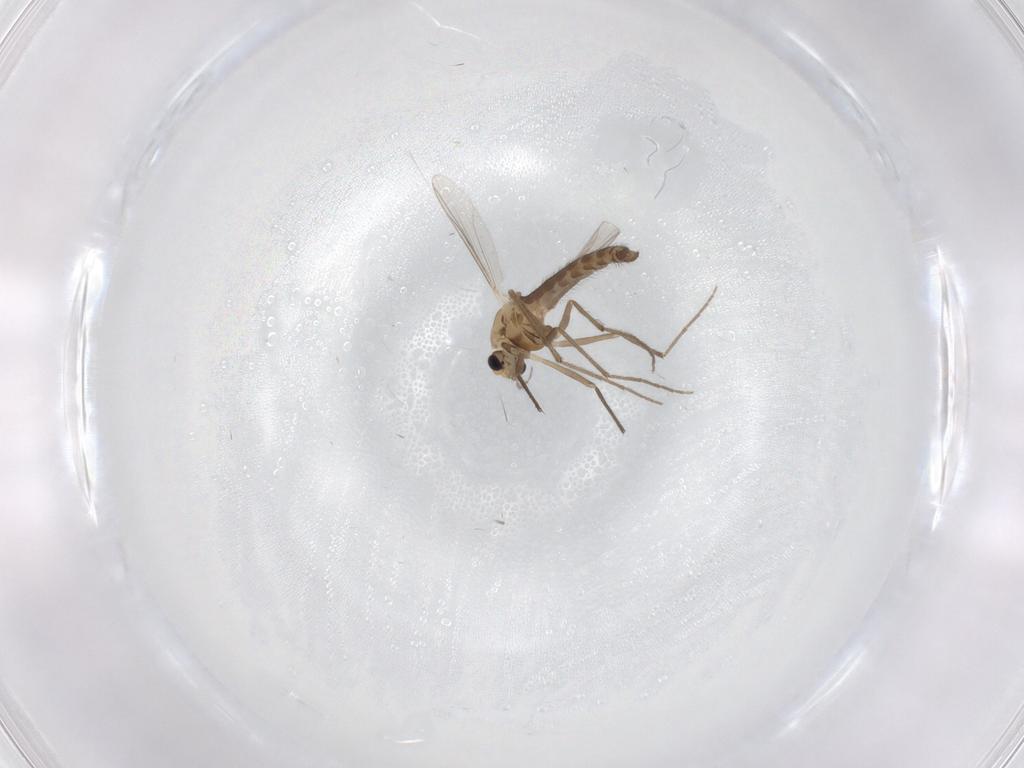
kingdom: Animalia
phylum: Arthropoda
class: Insecta
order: Diptera
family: Chironomidae
